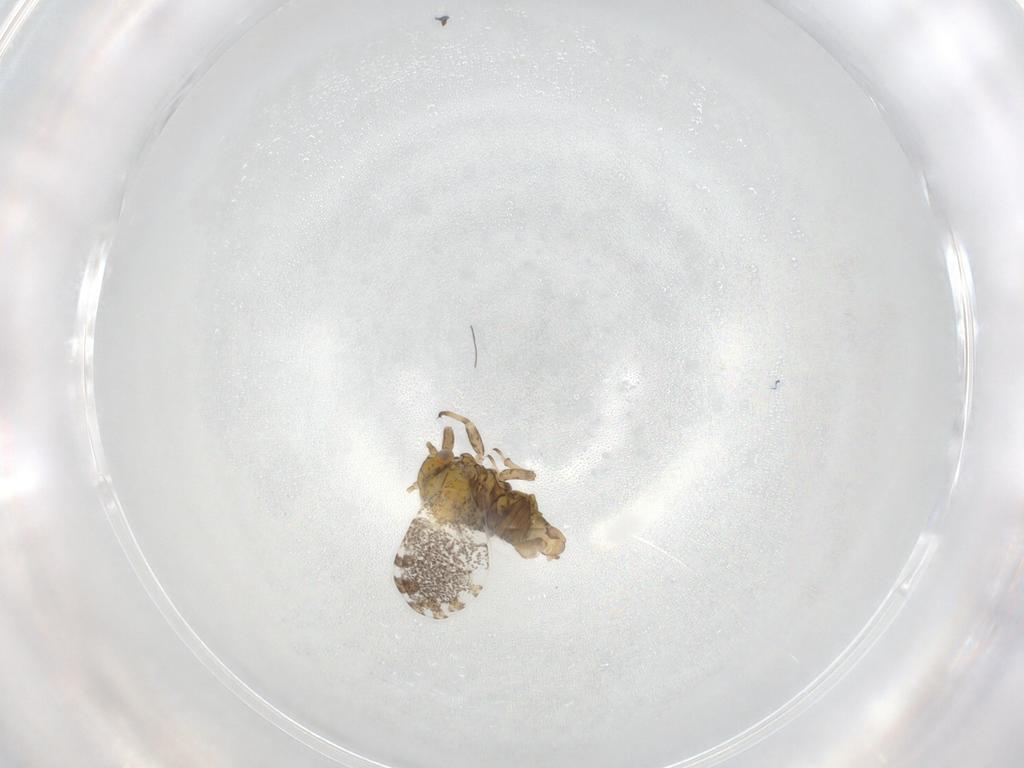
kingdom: Animalia
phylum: Arthropoda
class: Insecta
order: Hemiptera
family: Psylloidea_incertae_sedis
